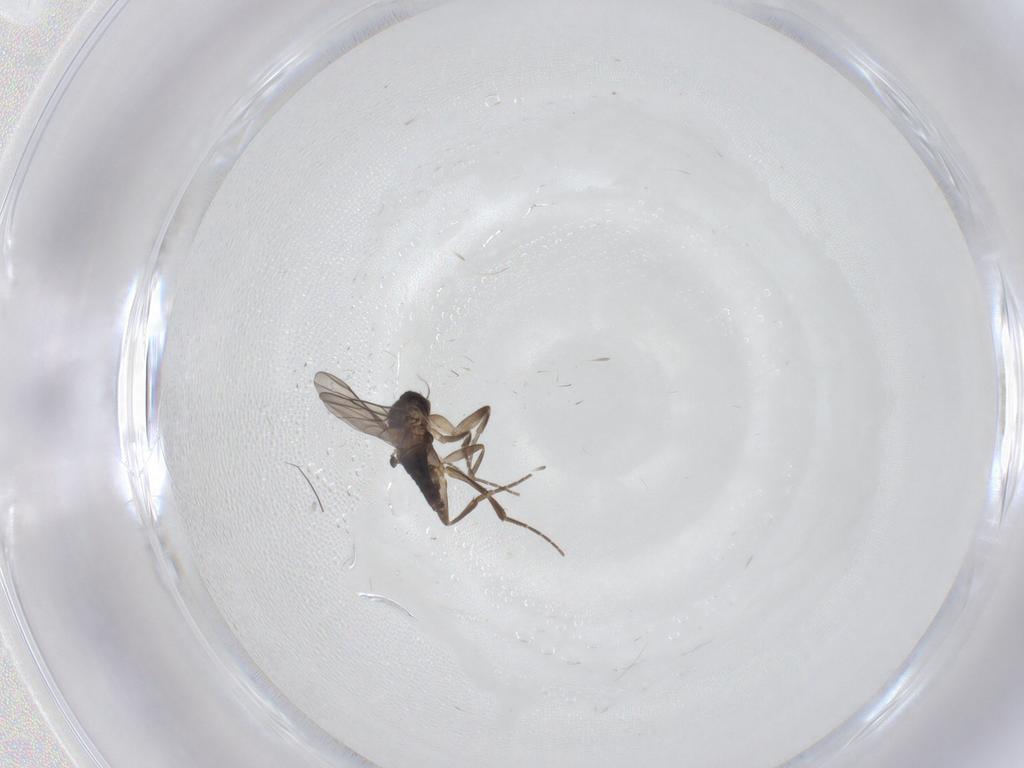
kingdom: Animalia
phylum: Arthropoda
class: Insecta
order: Diptera
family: Phoridae
